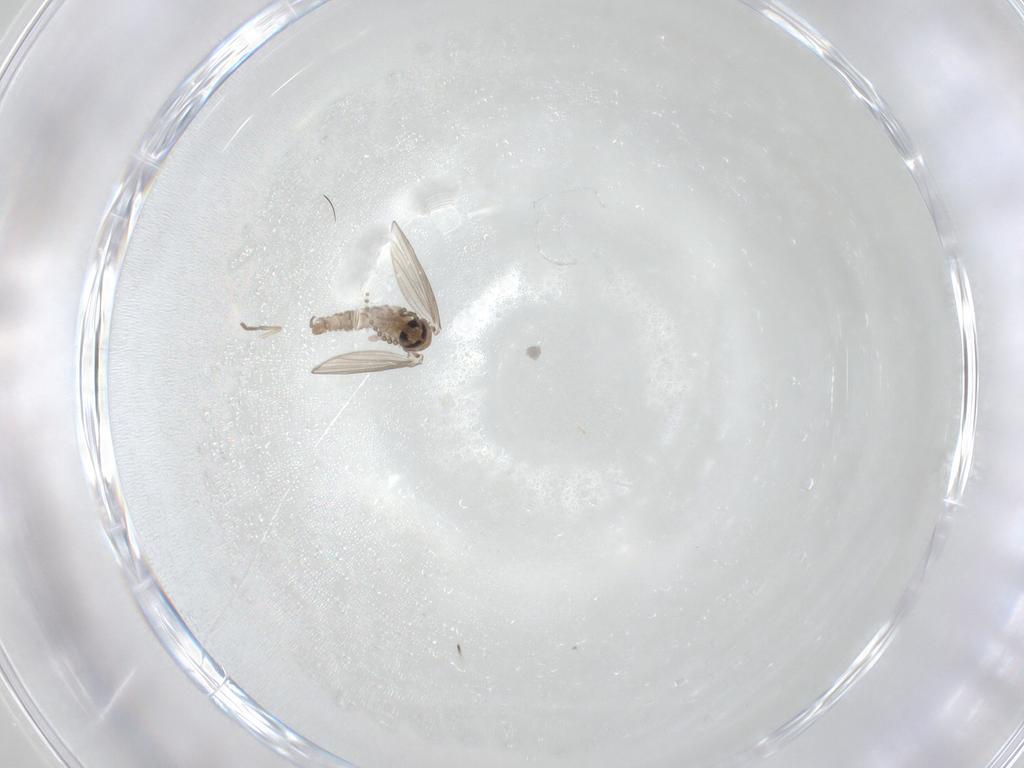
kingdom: Animalia
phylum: Arthropoda
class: Insecta
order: Diptera
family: Psychodidae
